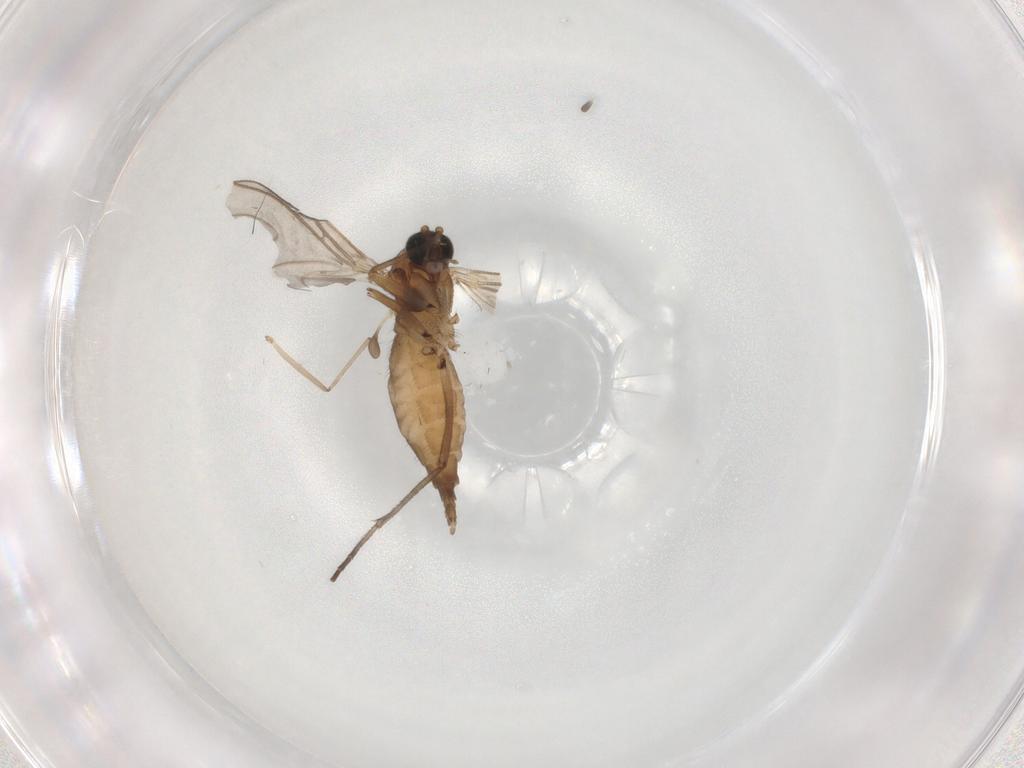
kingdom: Animalia
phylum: Arthropoda
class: Insecta
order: Diptera
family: Sciaridae
